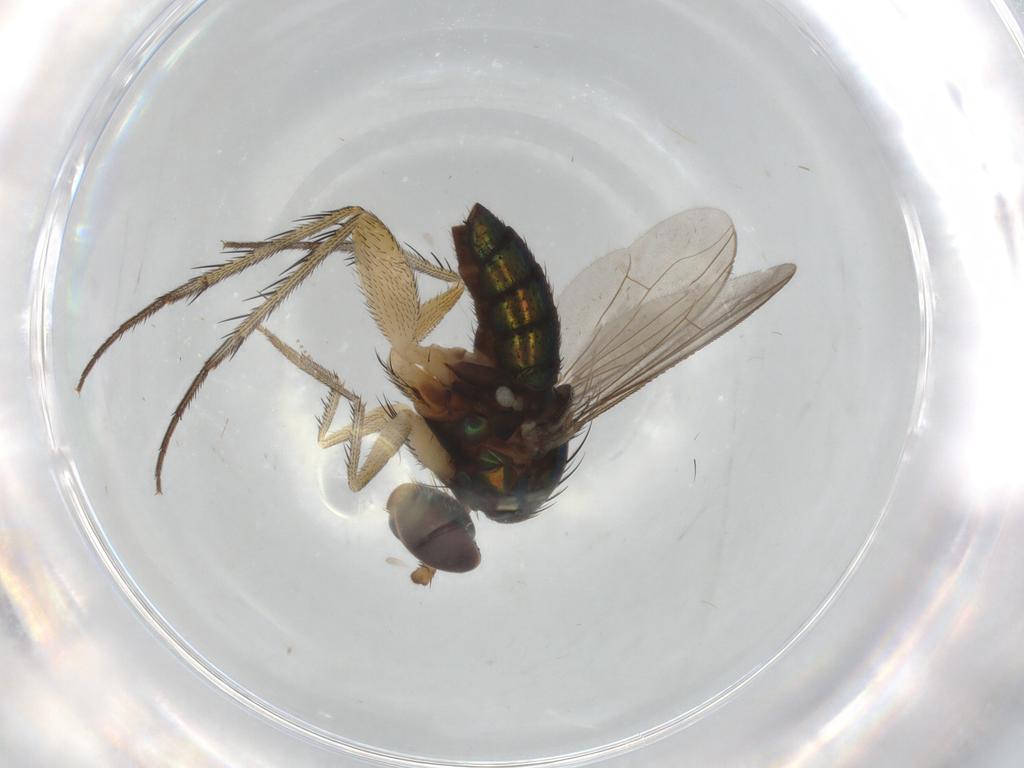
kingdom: Animalia
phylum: Arthropoda
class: Insecta
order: Diptera
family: Dolichopodidae
